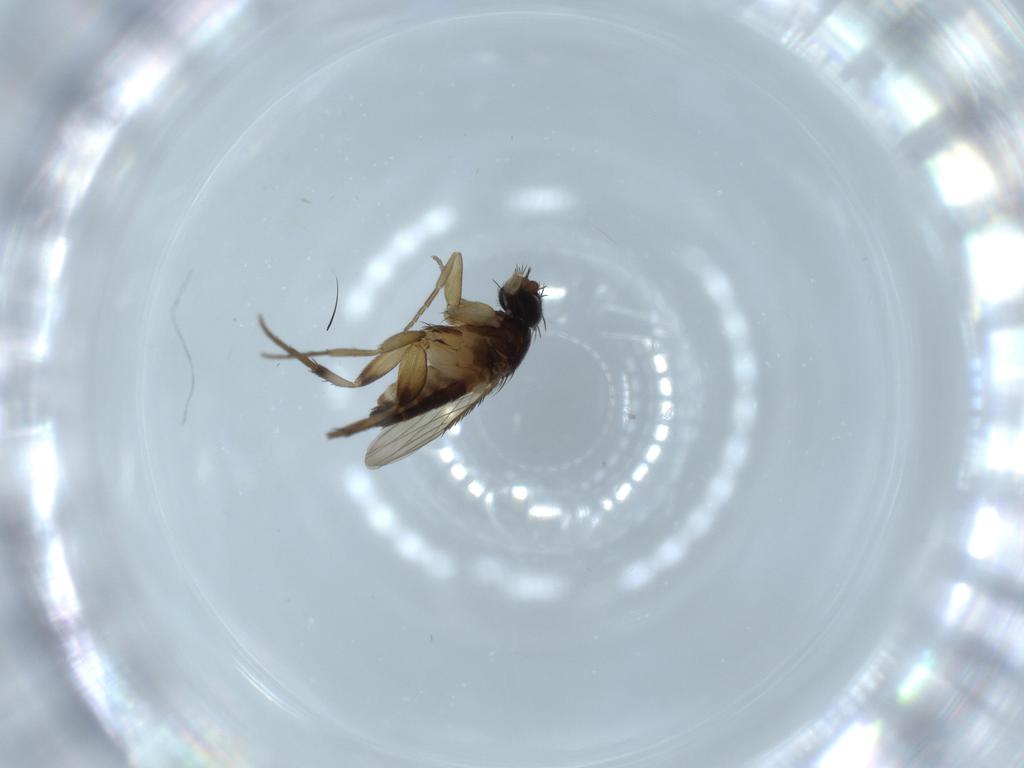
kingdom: Animalia
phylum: Arthropoda
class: Insecta
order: Diptera
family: Phoridae
